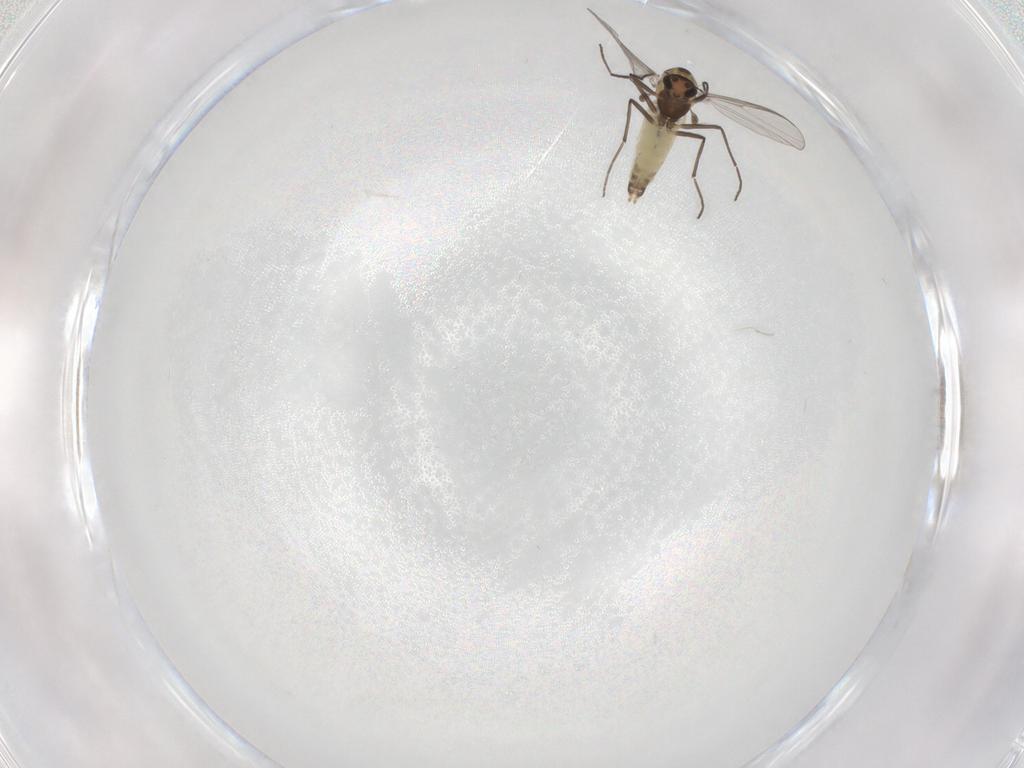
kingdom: Animalia
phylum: Arthropoda
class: Insecta
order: Diptera
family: Chironomidae
